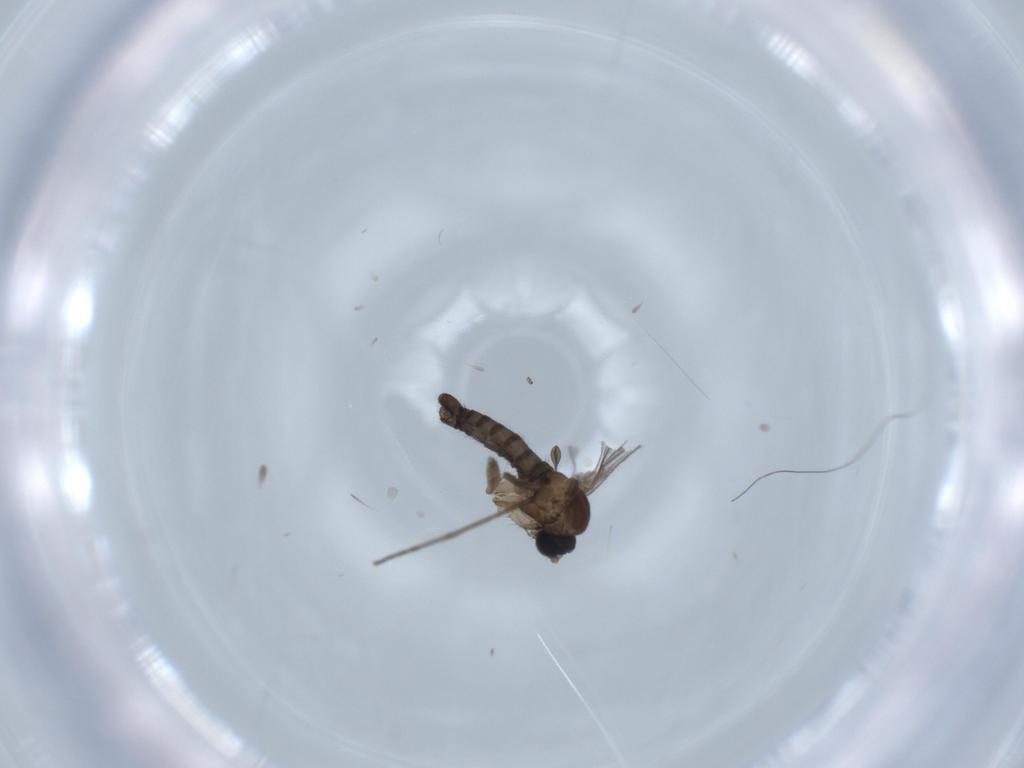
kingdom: Animalia
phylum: Arthropoda
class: Insecta
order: Diptera
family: Sciaridae
